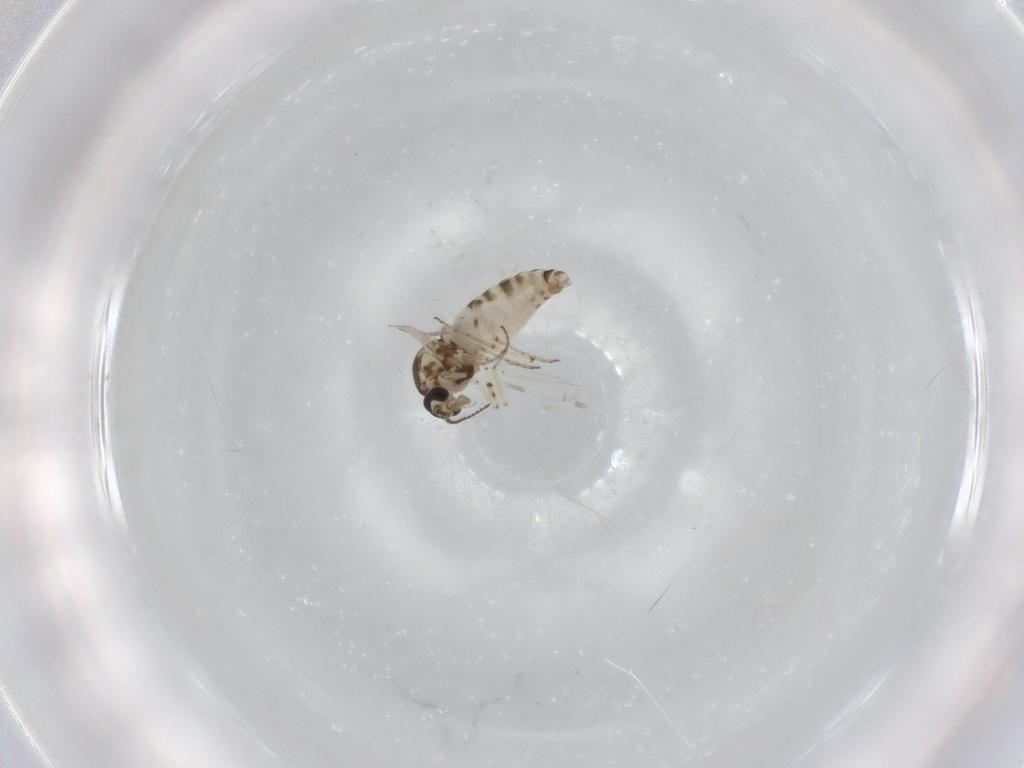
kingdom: Animalia
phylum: Arthropoda
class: Insecta
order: Diptera
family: Ceratopogonidae
